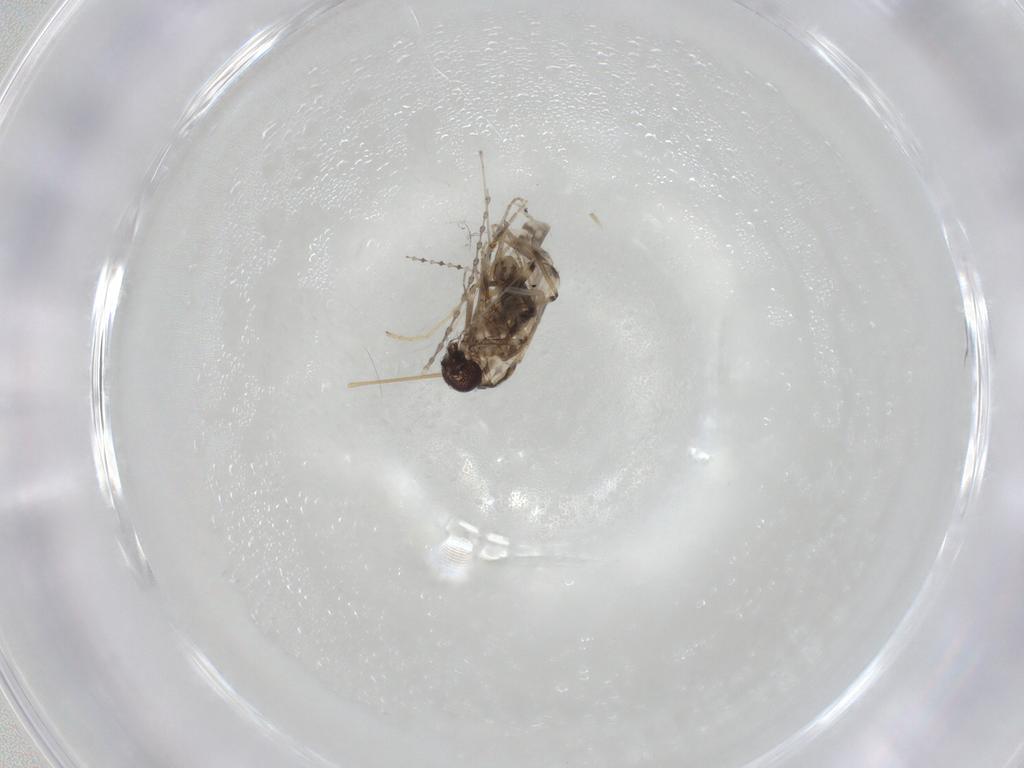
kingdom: Animalia
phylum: Arthropoda
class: Insecta
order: Diptera
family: Limoniidae
